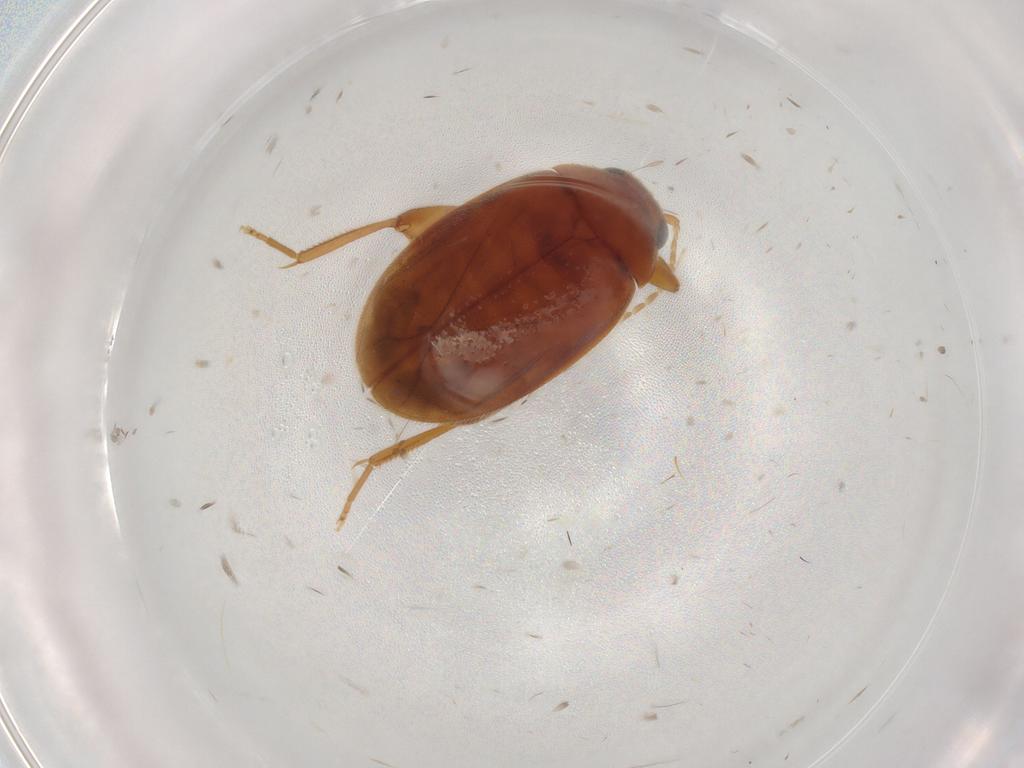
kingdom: Animalia
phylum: Arthropoda
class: Insecta
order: Coleoptera
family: Scirtidae
